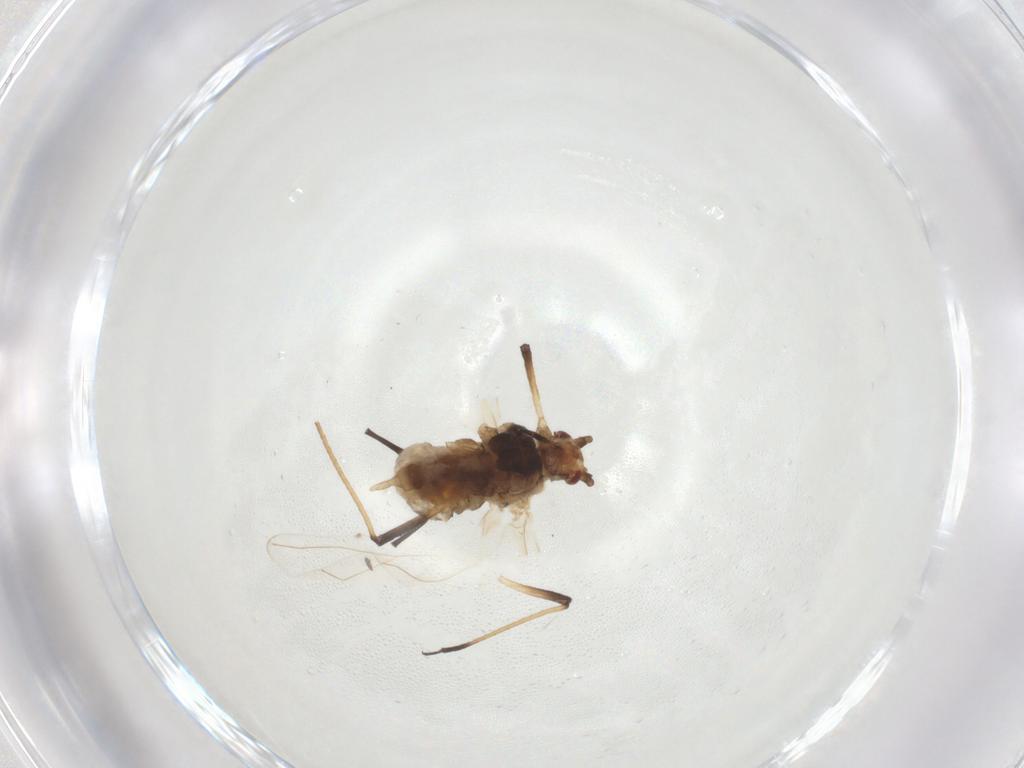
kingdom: Animalia
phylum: Arthropoda
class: Insecta
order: Hemiptera
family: Aphididae
